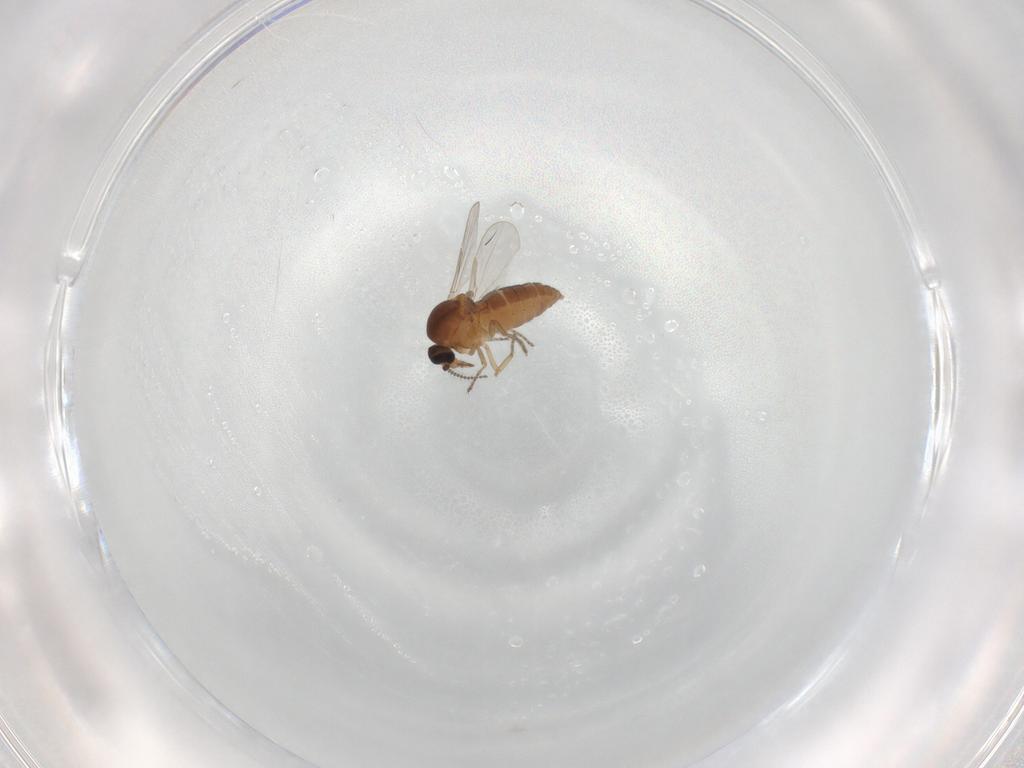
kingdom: Animalia
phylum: Arthropoda
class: Insecta
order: Diptera
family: Ceratopogonidae
